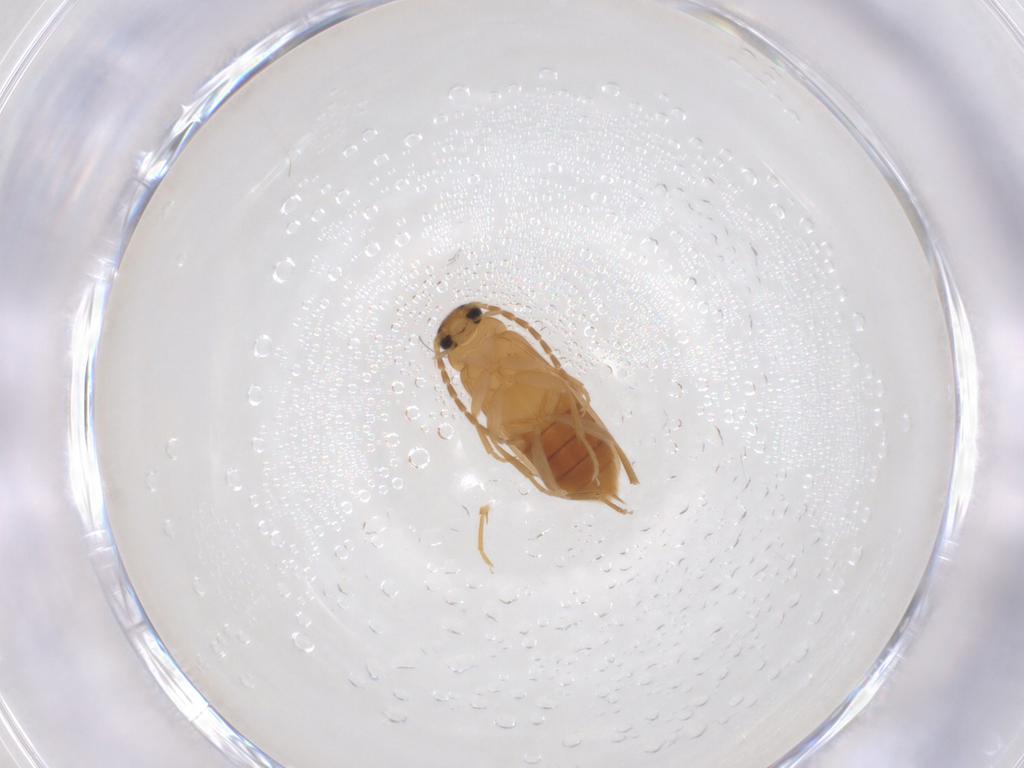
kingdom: Animalia
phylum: Arthropoda
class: Insecta
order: Coleoptera
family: Scraptiidae
